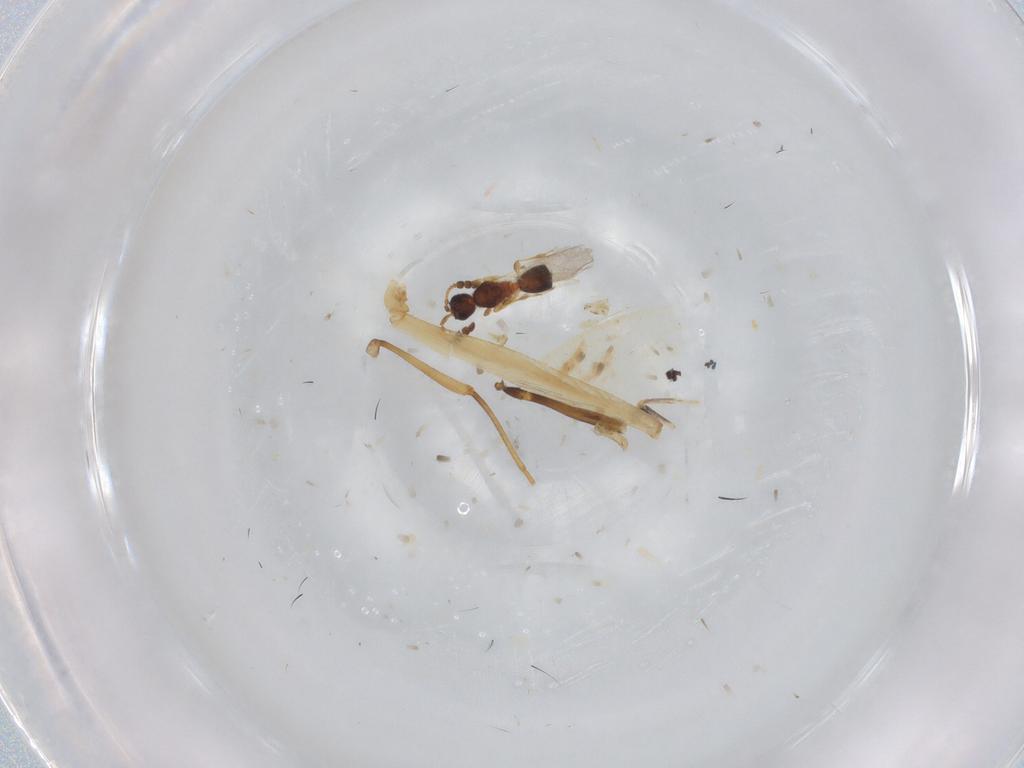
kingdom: Animalia
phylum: Arthropoda
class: Insecta
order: Hymenoptera
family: Formicidae
